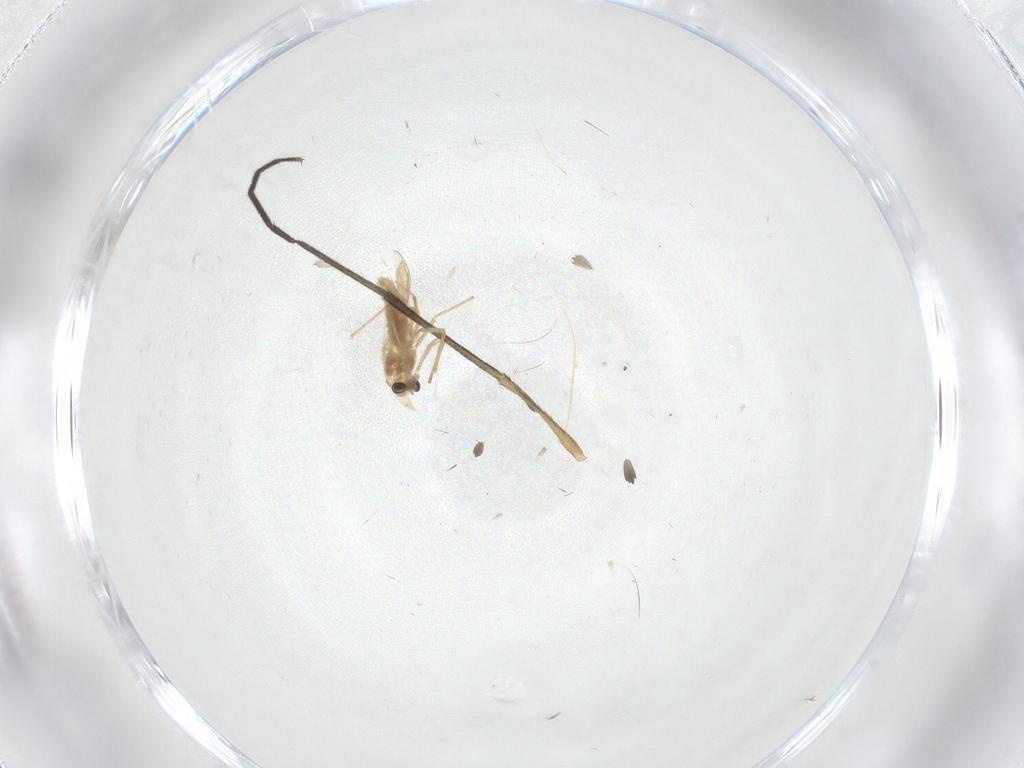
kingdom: Animalia
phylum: Arthropoda
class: Insecta
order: Diptera
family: Mycetophilidae
